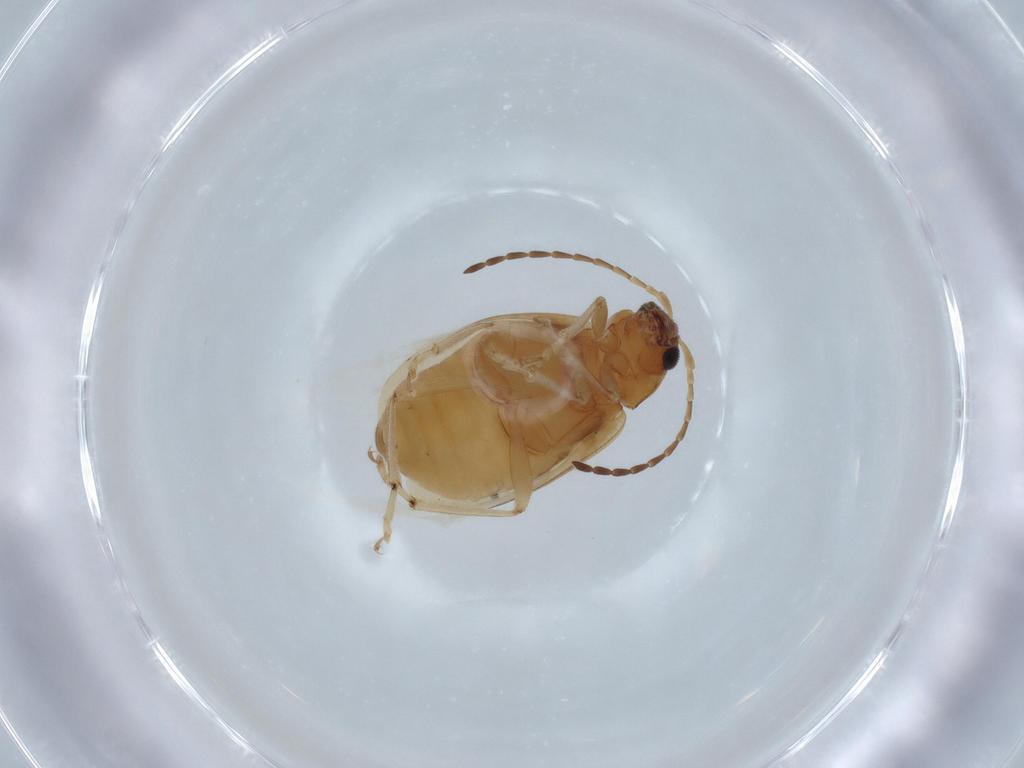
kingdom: Animalia
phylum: Arthropoda
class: Insecta
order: Coleoptera
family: Chrysomelidae
